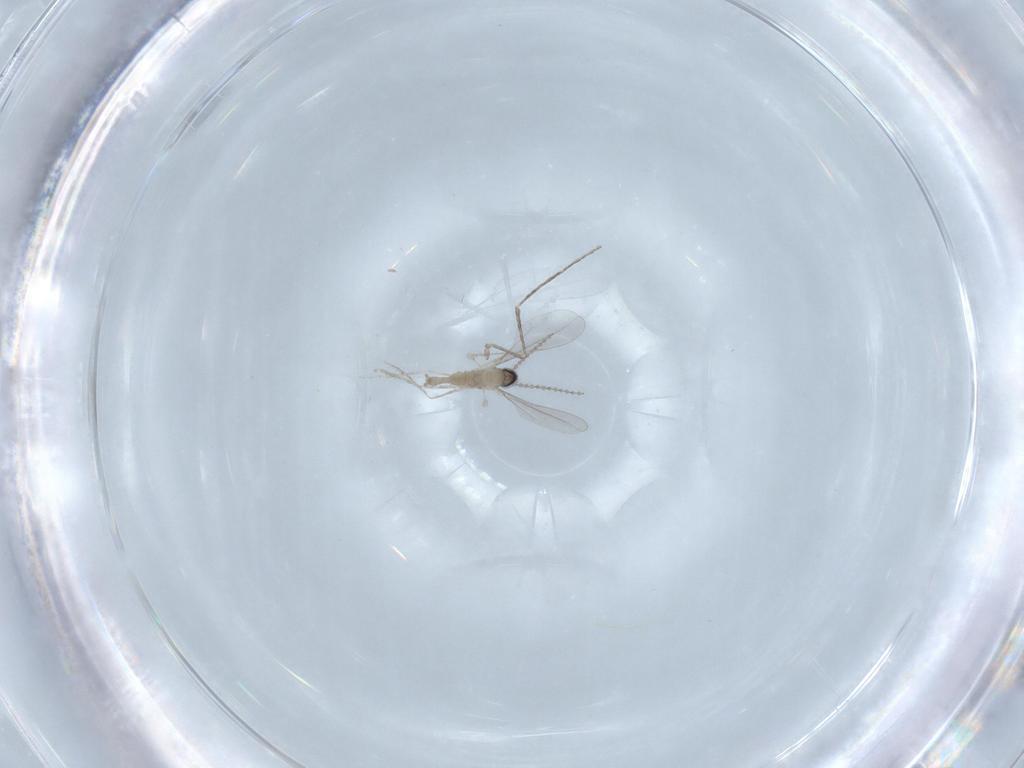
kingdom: Animalia
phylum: Arthropoda
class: Insecta
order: Diptera
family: Cecidomyiidae
